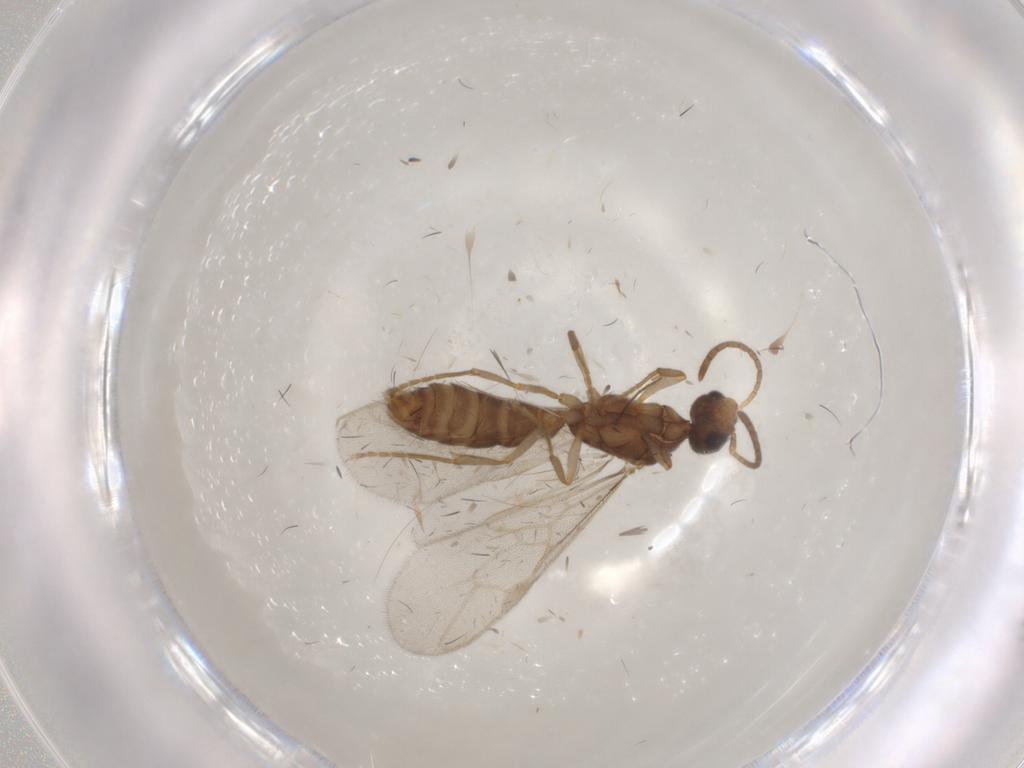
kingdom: Animalia
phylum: Arthropoda
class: Insecta
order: Hymenoptera
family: Formicidae
